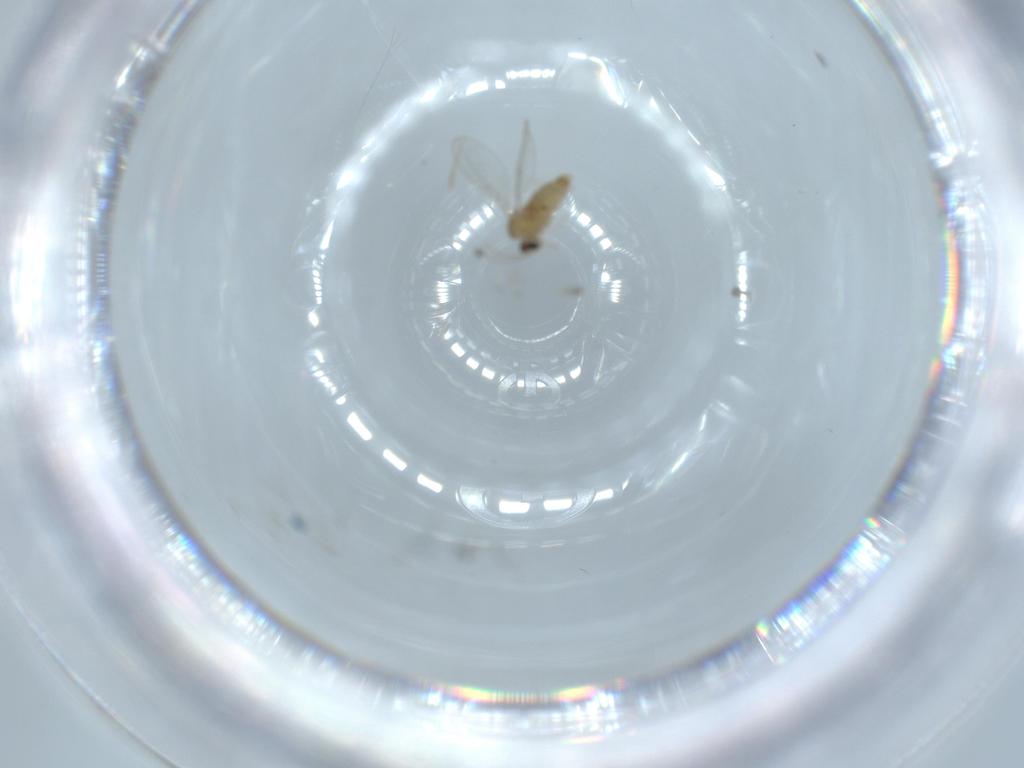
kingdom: Animalia
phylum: Arthropoda
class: Insecta
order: Diptera
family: Cecidomyiidae
